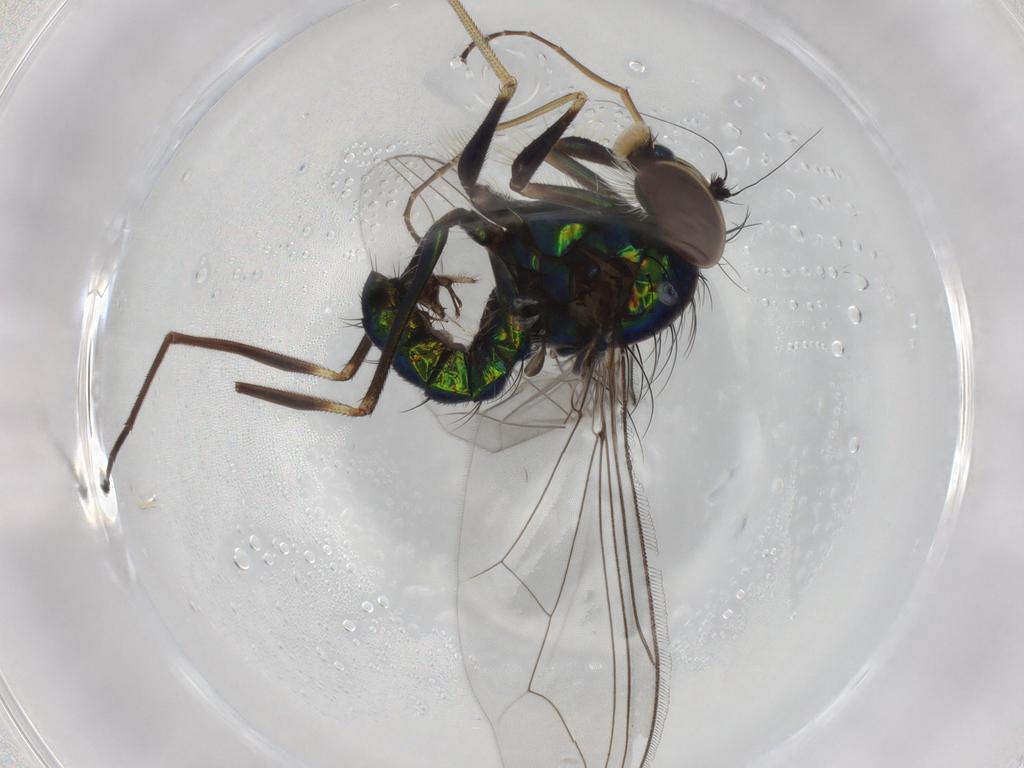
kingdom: Animalia
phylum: Arthropoda
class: Insecta
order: Diptera
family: Dolichopodidae
